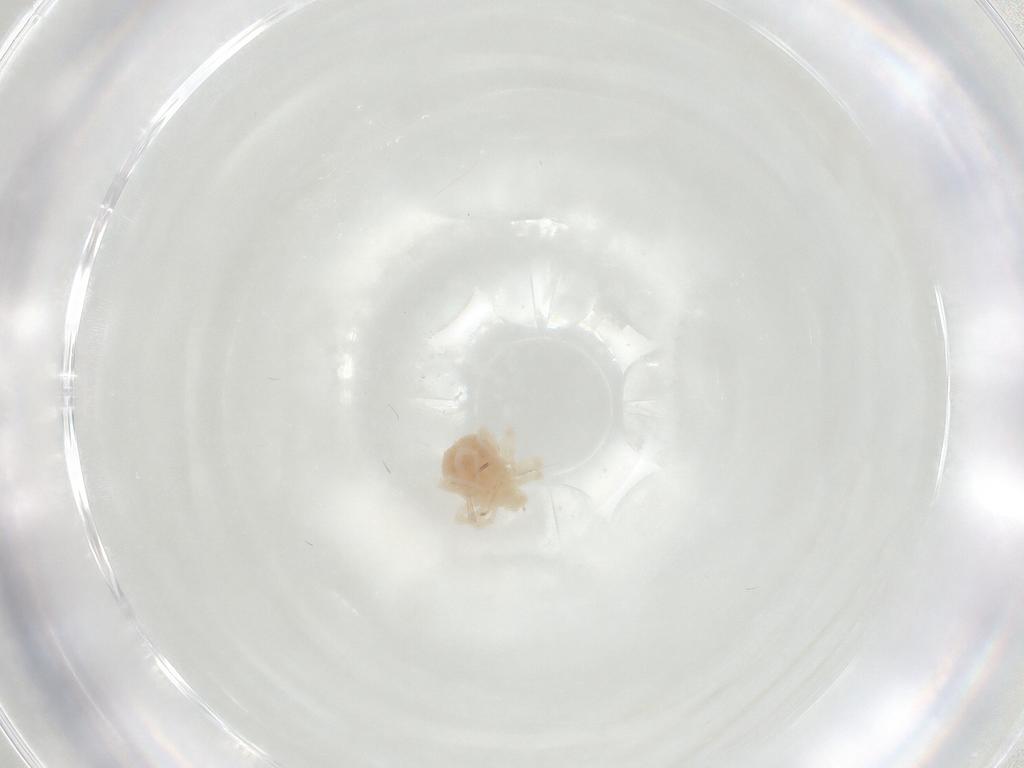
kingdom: Animalia
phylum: Arthropoda
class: Arachnida
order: Trombidiformes
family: Anystidae
